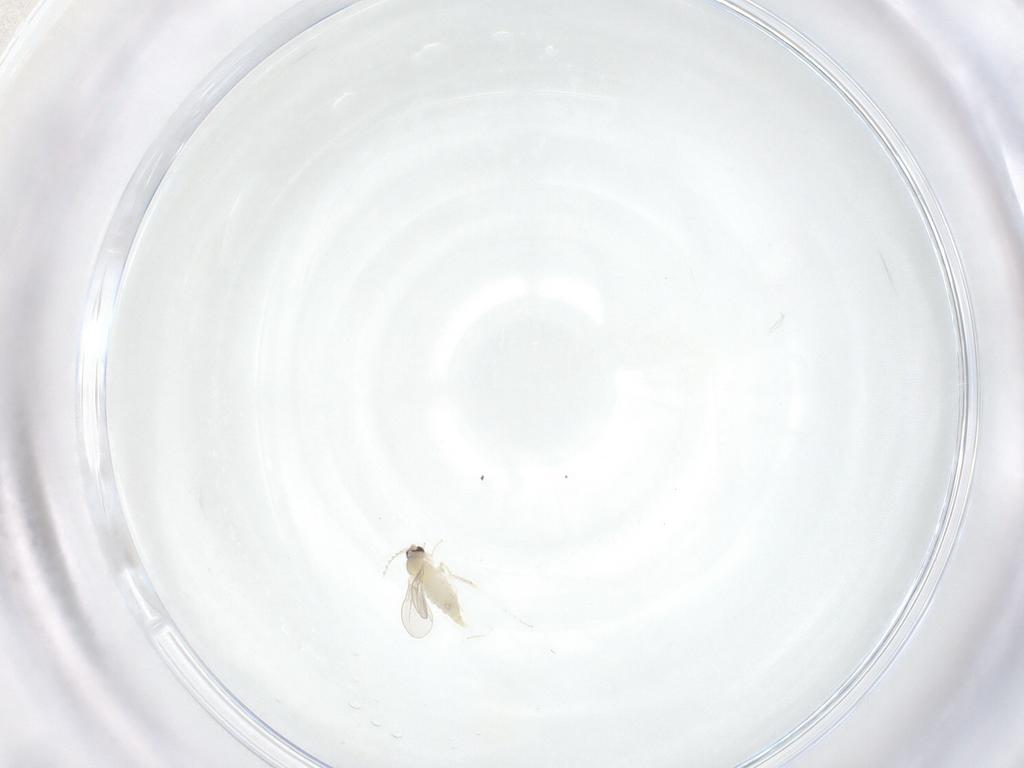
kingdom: Animalia
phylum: Arthropoda
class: Insecta
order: Diptera
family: Cecidomyiidae
